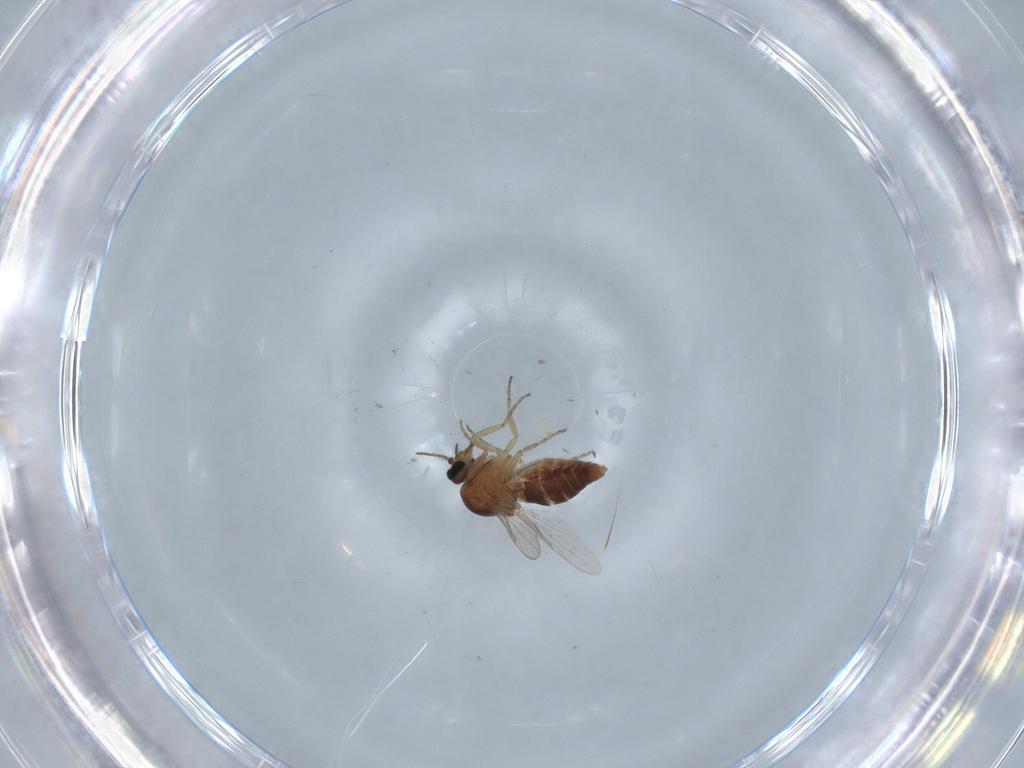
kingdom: Animalia
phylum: Arthropoda
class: Insecta
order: Diptera
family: Ceratopogonidae
